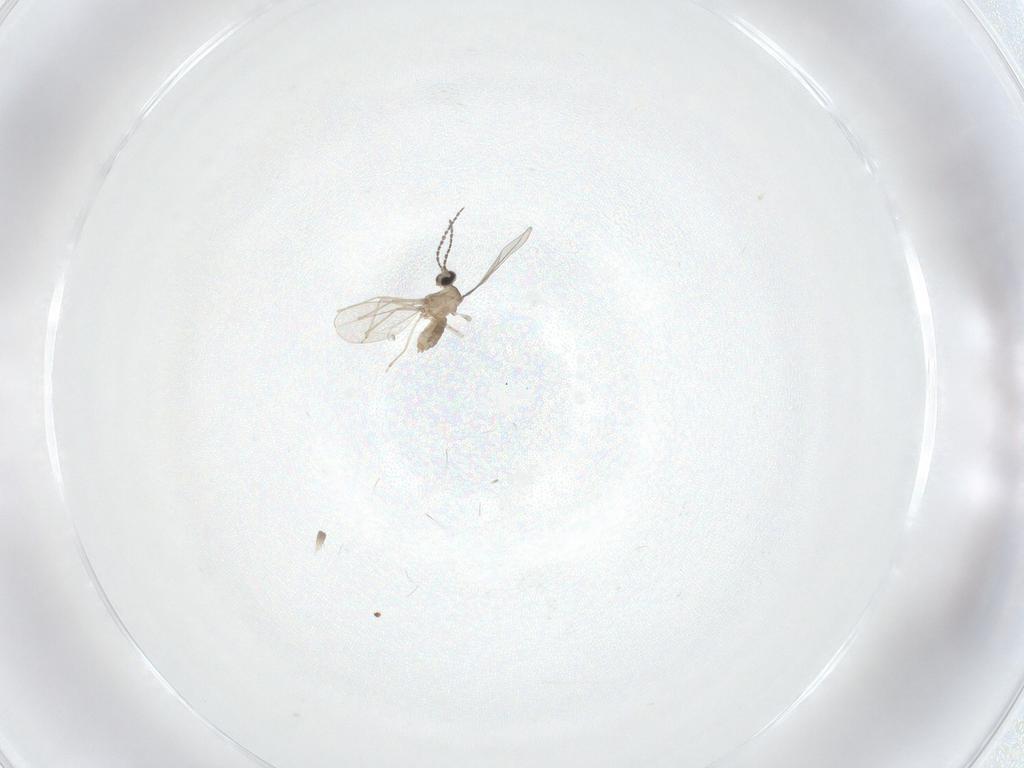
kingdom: Animalia
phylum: Arthropoda
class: Insecta
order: Diptera
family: Cecidomyiidae
